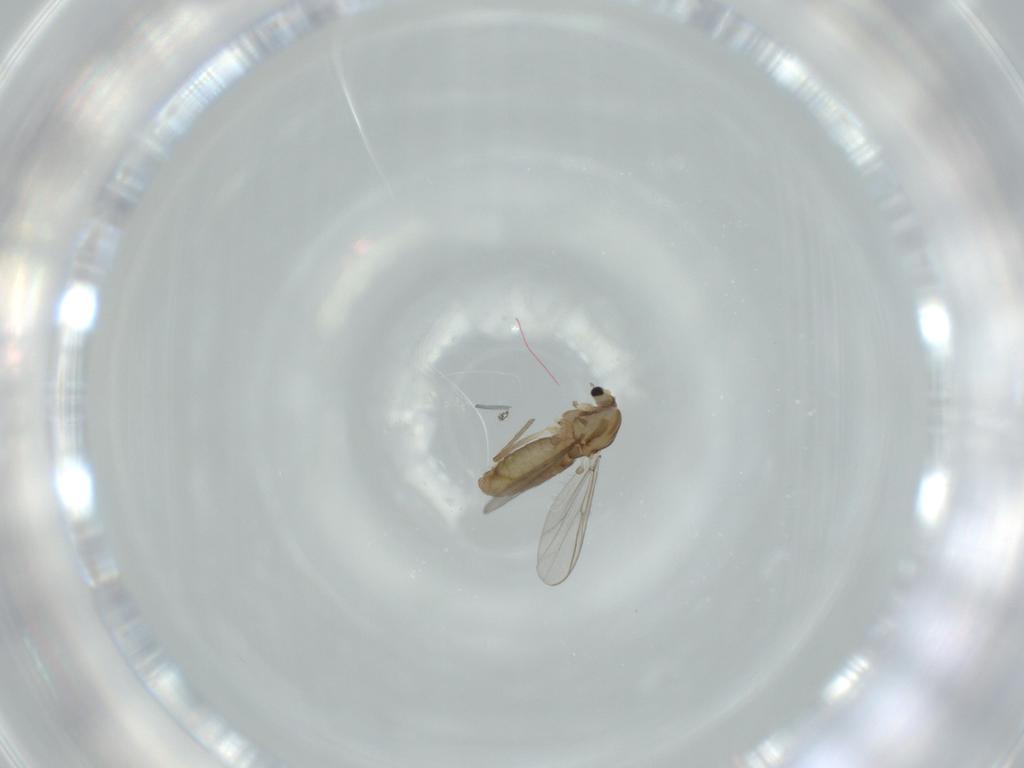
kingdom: Animalia
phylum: Arthropoda
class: Insecta
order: Diptera
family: Chironomidae
